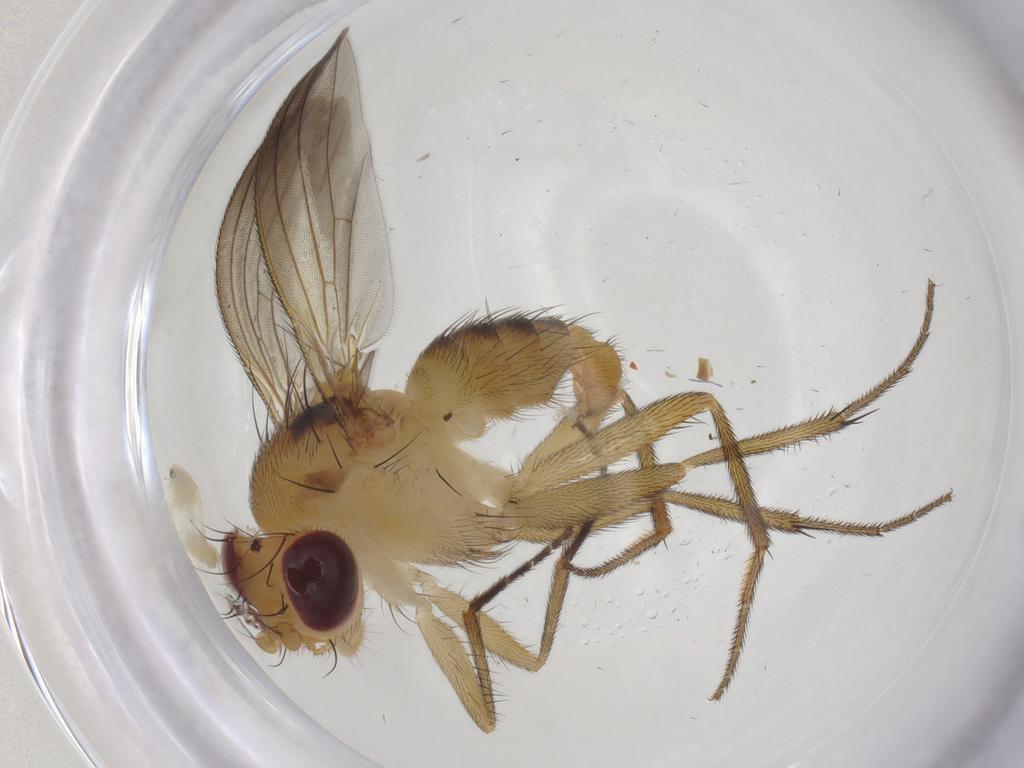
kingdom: Animalia
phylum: Arthropoda
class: Insecta
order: Diptera
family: Clusiidae
